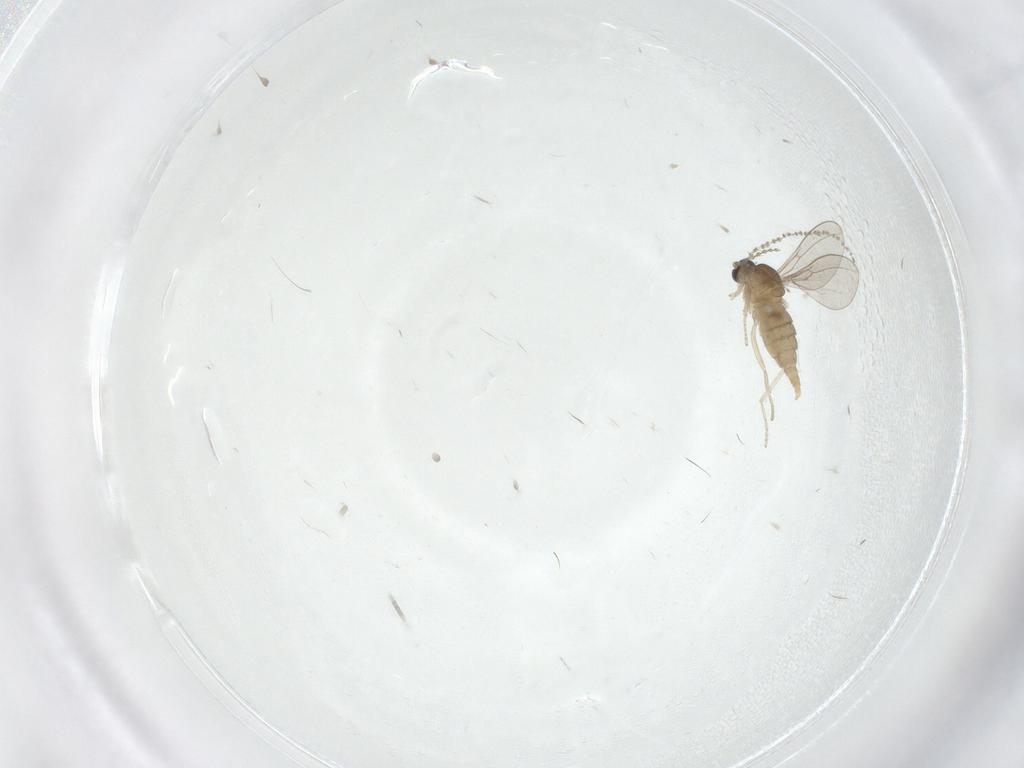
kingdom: Animalia
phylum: Arthropoda
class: Insecta
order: Diptera
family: Cecidomyiidae
